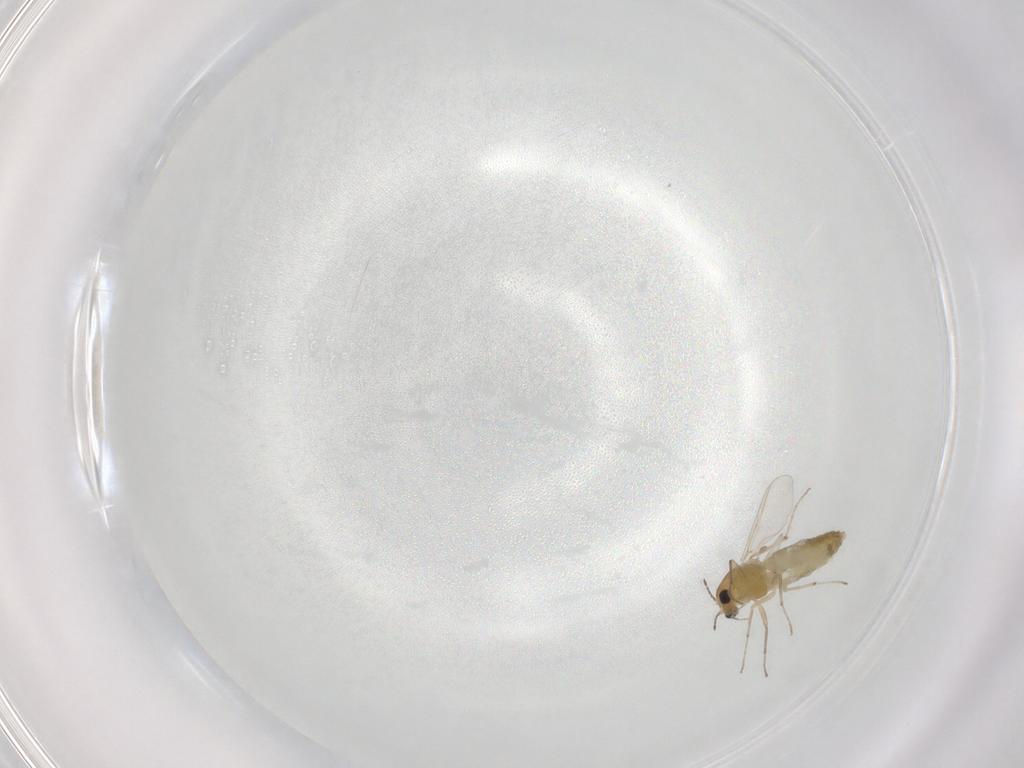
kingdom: Animalia
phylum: Arthropoda
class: Insecta
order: Diptera
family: Chironomidae
